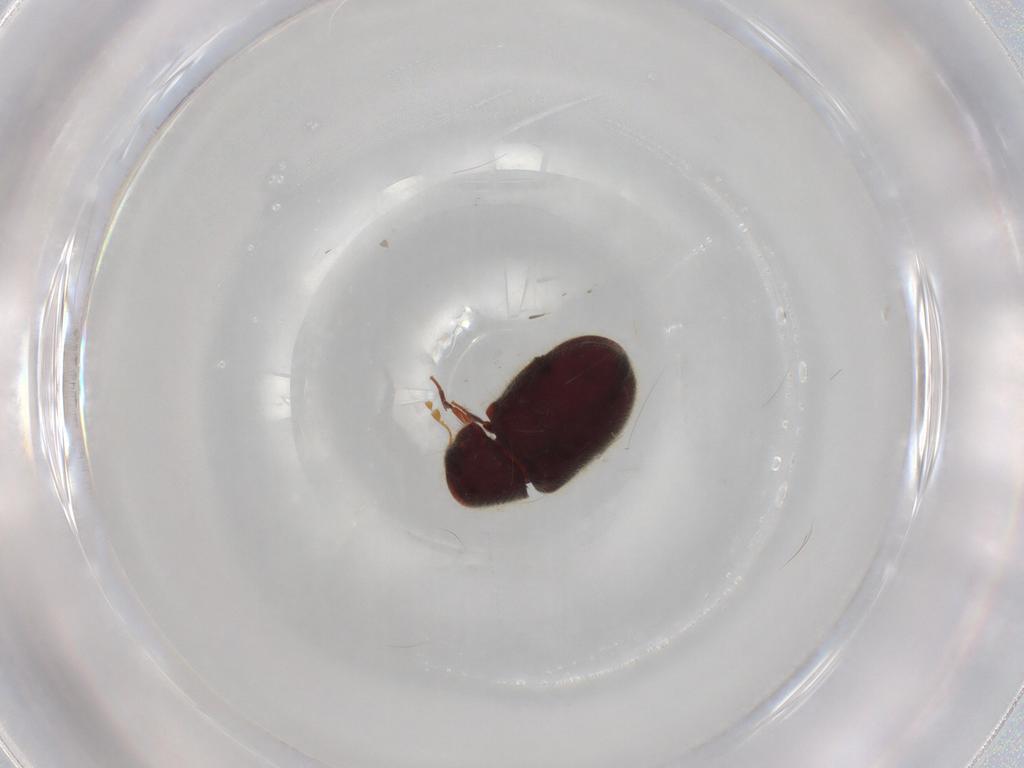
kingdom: Animalia
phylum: Arthropoda
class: Insecta
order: Coleoptera
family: Ptinidae
